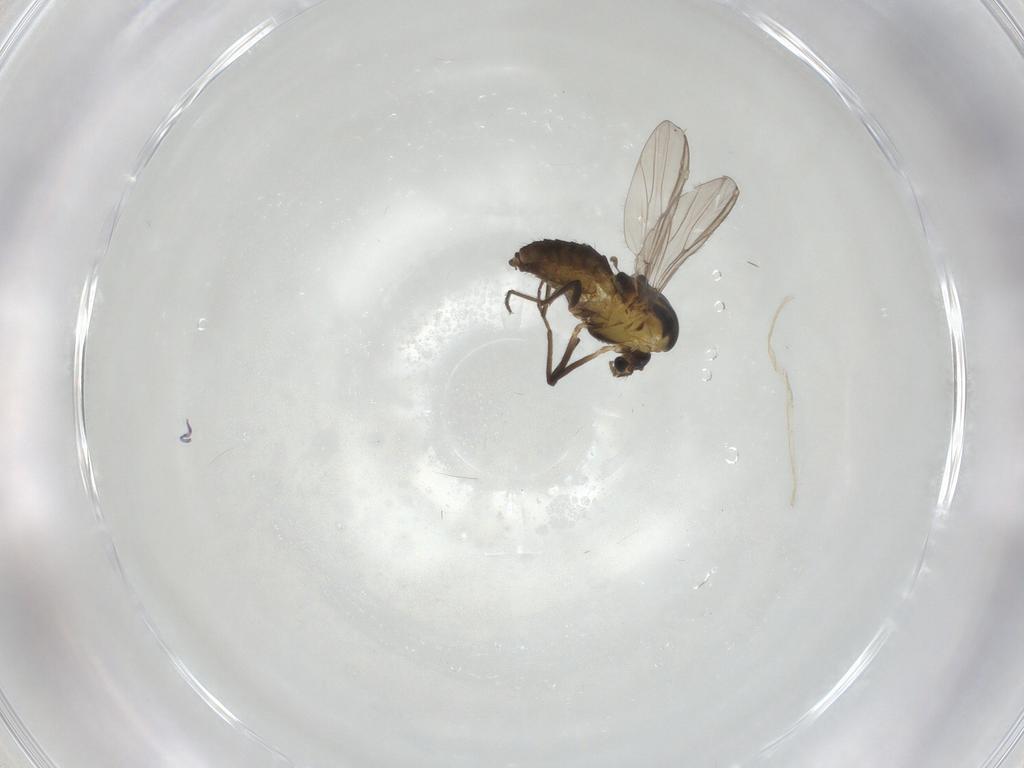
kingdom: Animalia
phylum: Arthropoda
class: Insecta
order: Diptera
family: Chironomidae
